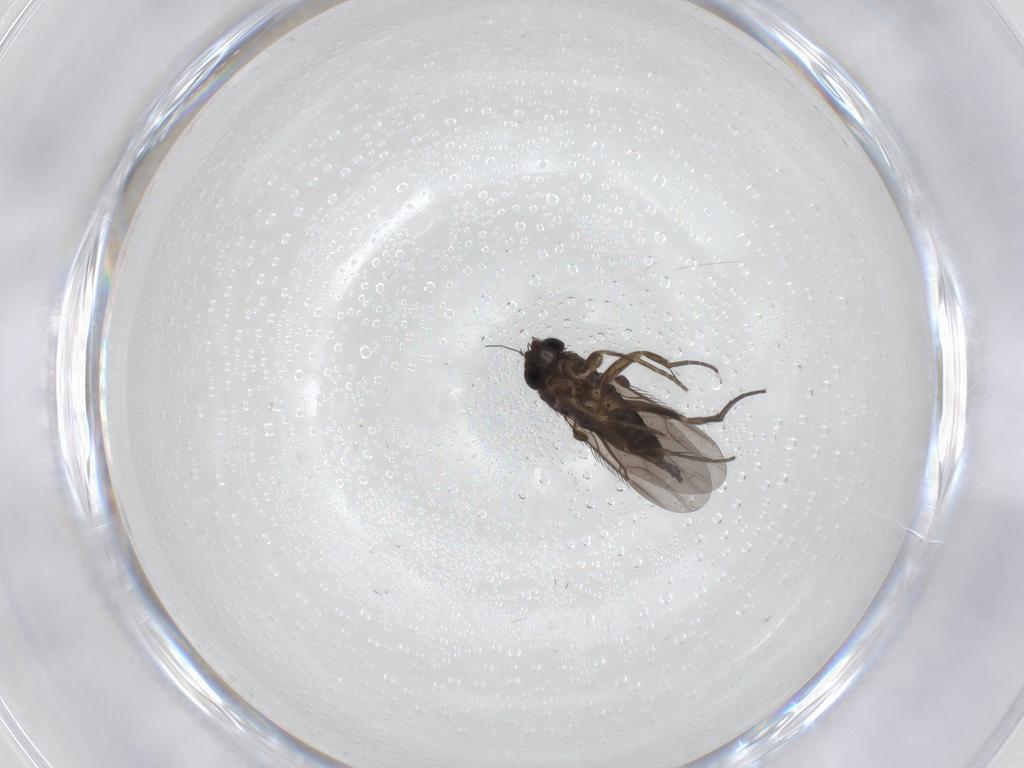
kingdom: Animalia
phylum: Arthropoda
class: Insecta
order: Diptera
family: Phoridae
